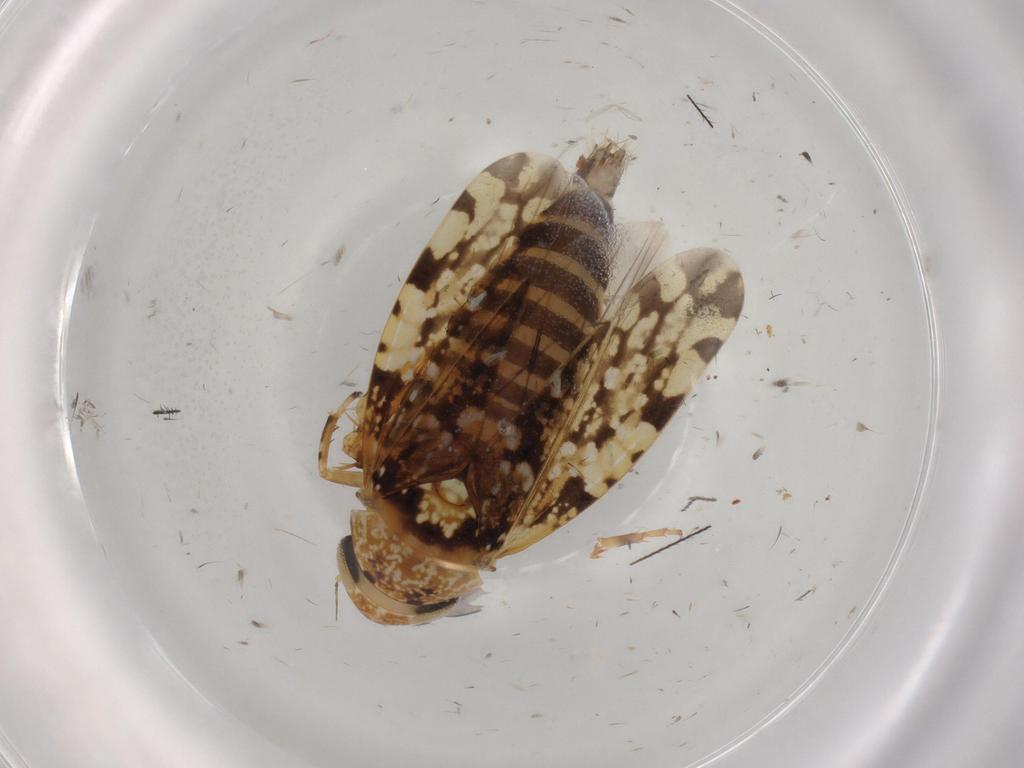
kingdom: Animalia
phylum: Arthropoda
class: Insecta
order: Hemiptera
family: Cicadellidae
